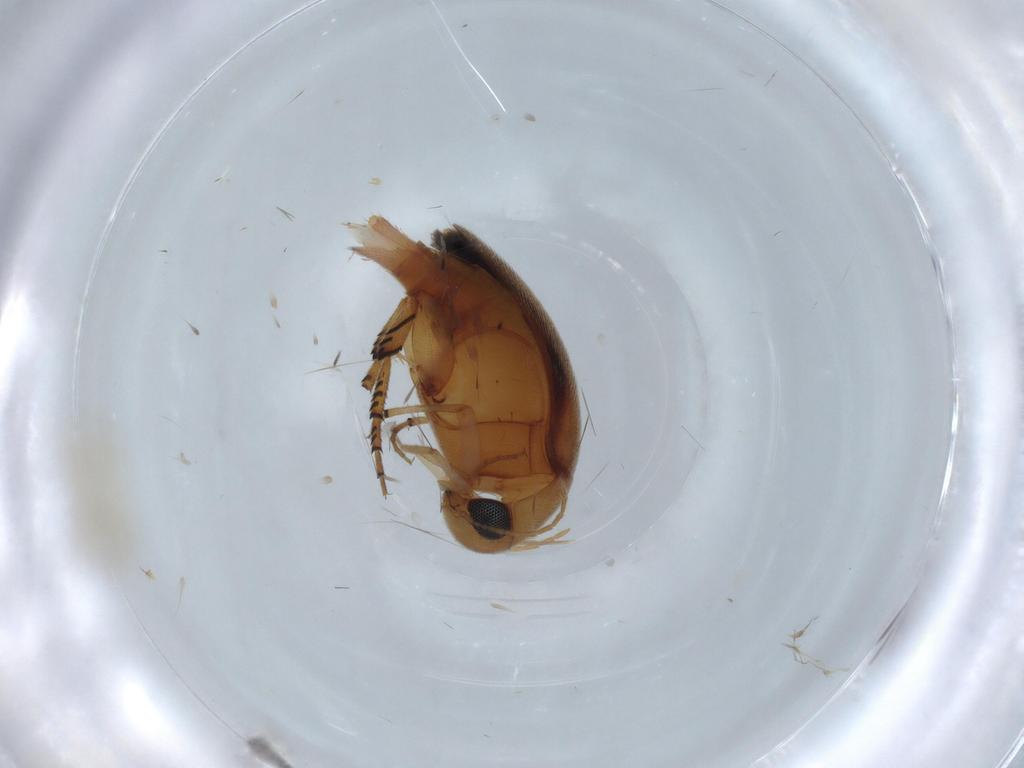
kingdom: Animalia
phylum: Arthropoda
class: Insecta
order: Coleoptera
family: Mordellidae
